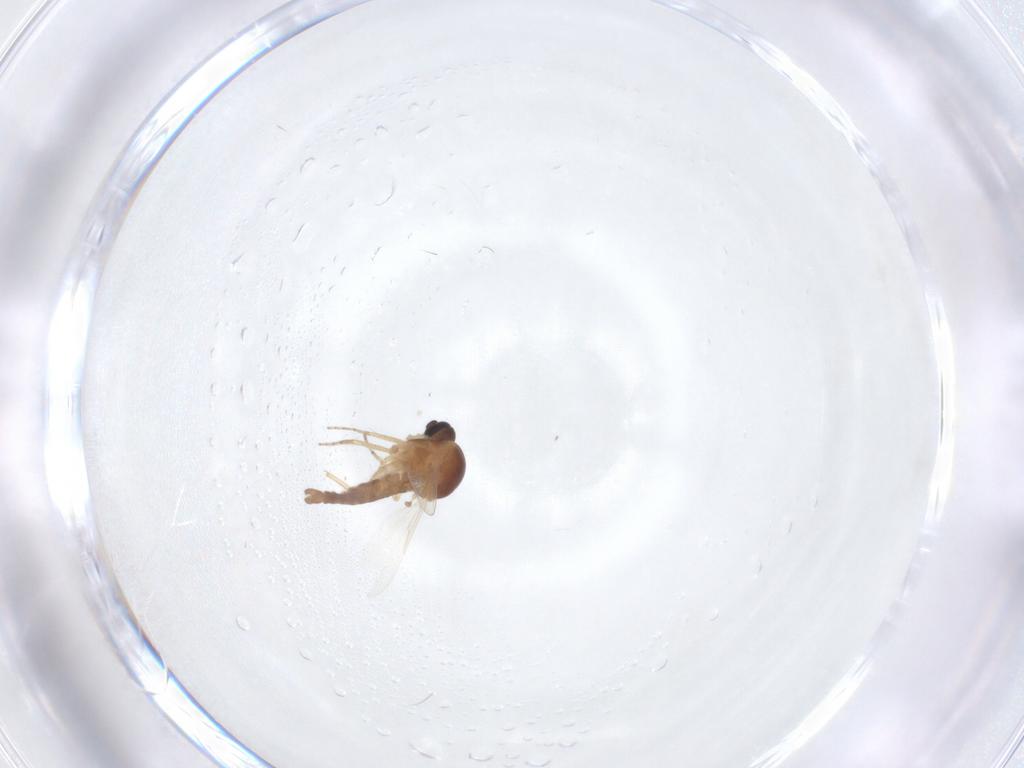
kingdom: Animalia
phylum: Arthropoda
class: Insecta
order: Diptera
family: Ceratopogonidae
